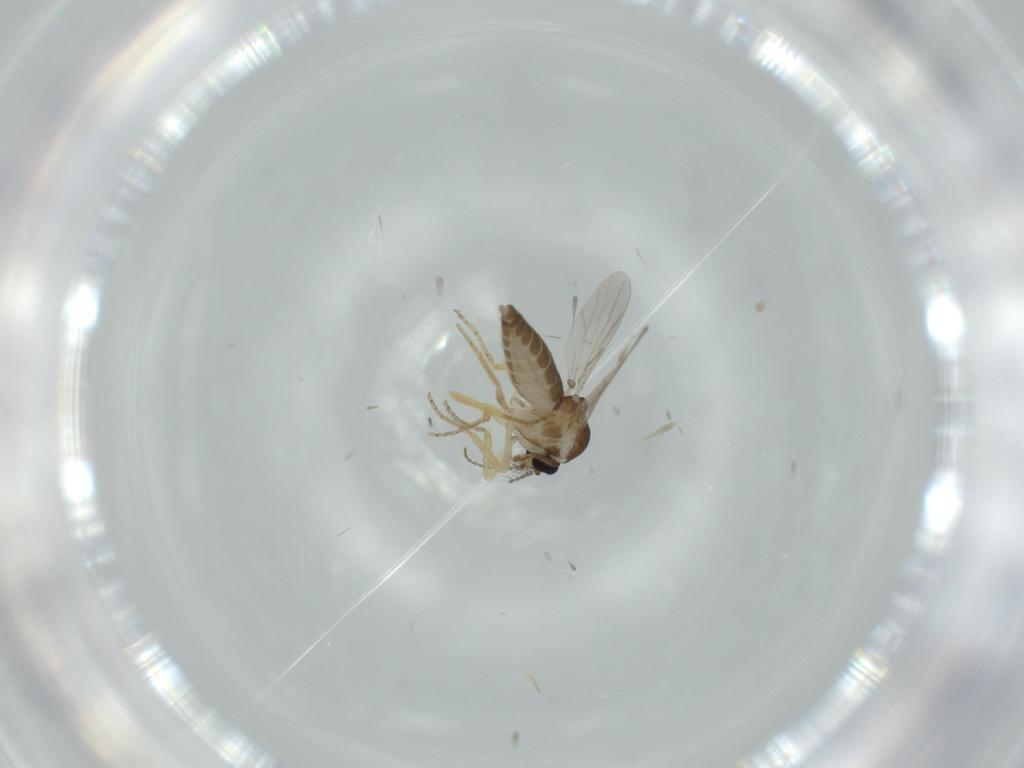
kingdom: Animalia
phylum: Arthropoda
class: Insecta
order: Diptera
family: Ceratopogonidae
